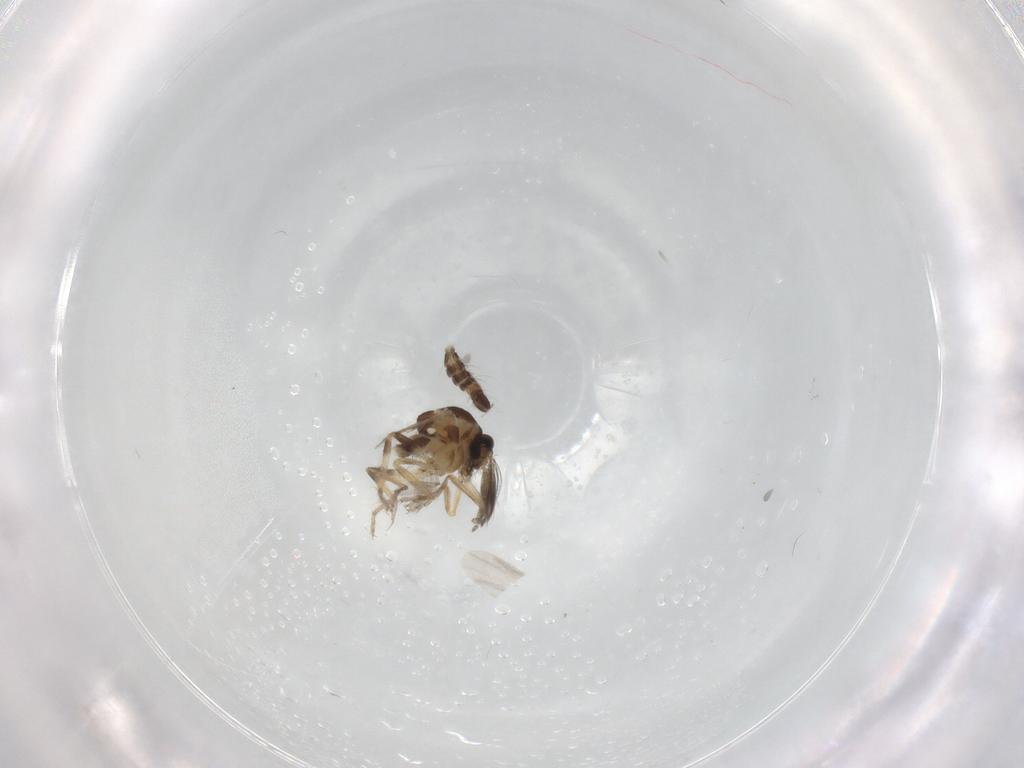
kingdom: Animalia
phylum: Arthropoda
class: Insecta
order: Diptera
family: Ceratopogonidae
